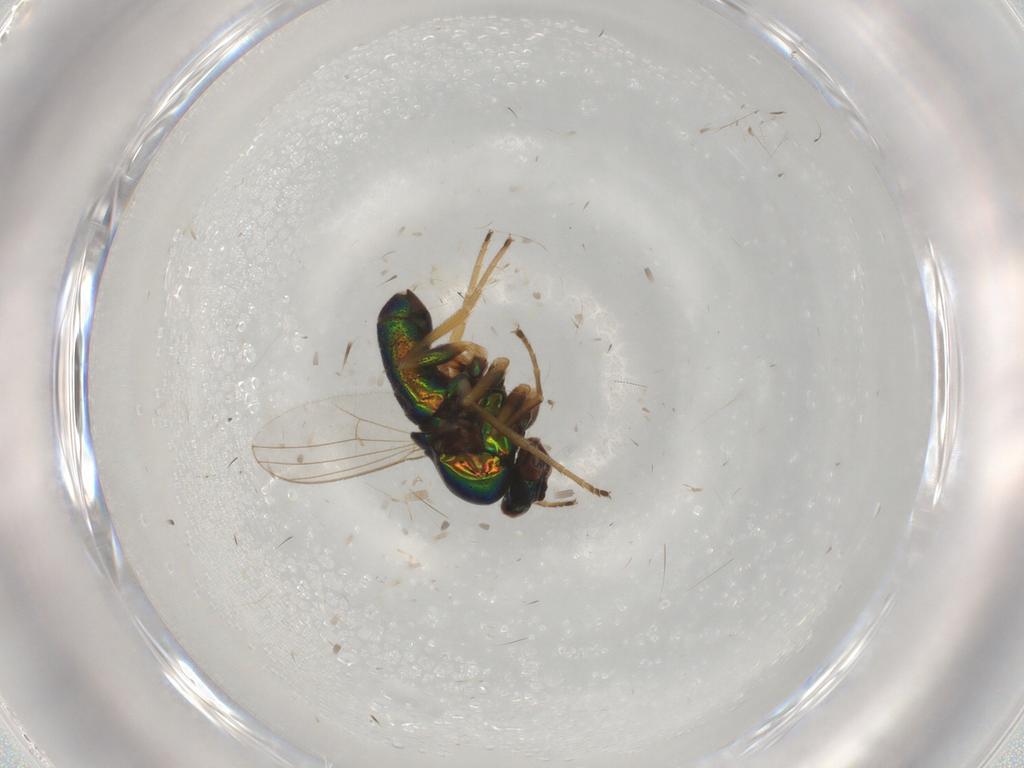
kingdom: Animalia
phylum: Arthropoda
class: Insecta
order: Diptera
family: Dolichopodidae
